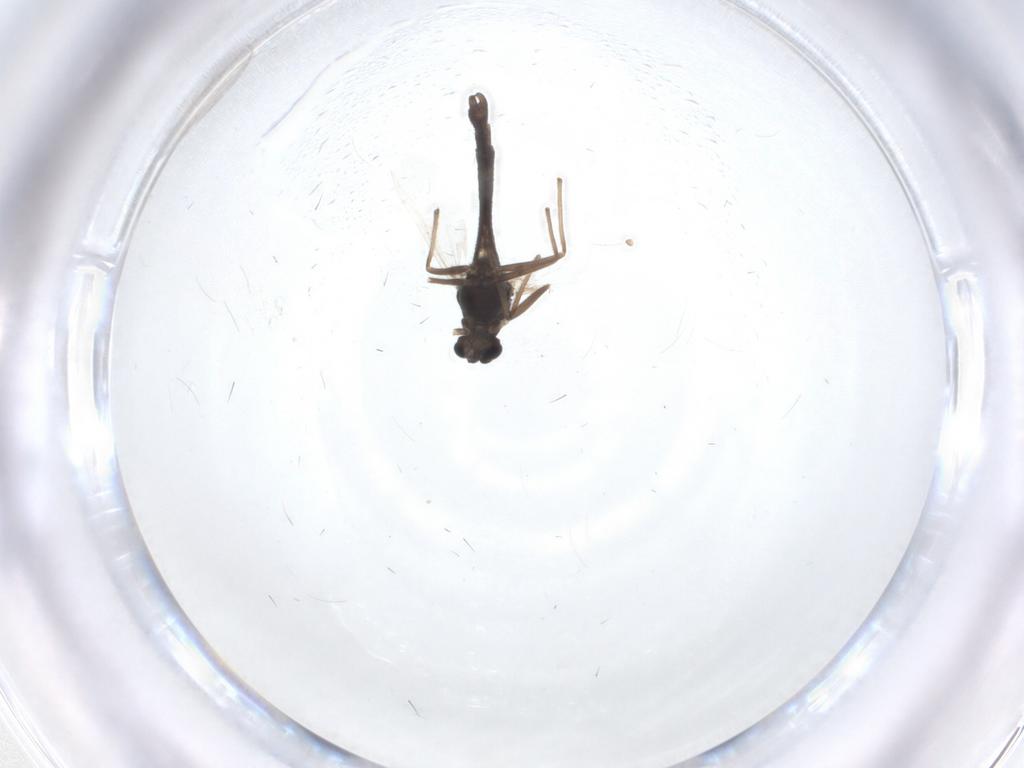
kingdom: Animalia
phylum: Arthropoda
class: Insecta
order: Diptera
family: Chironomidae
